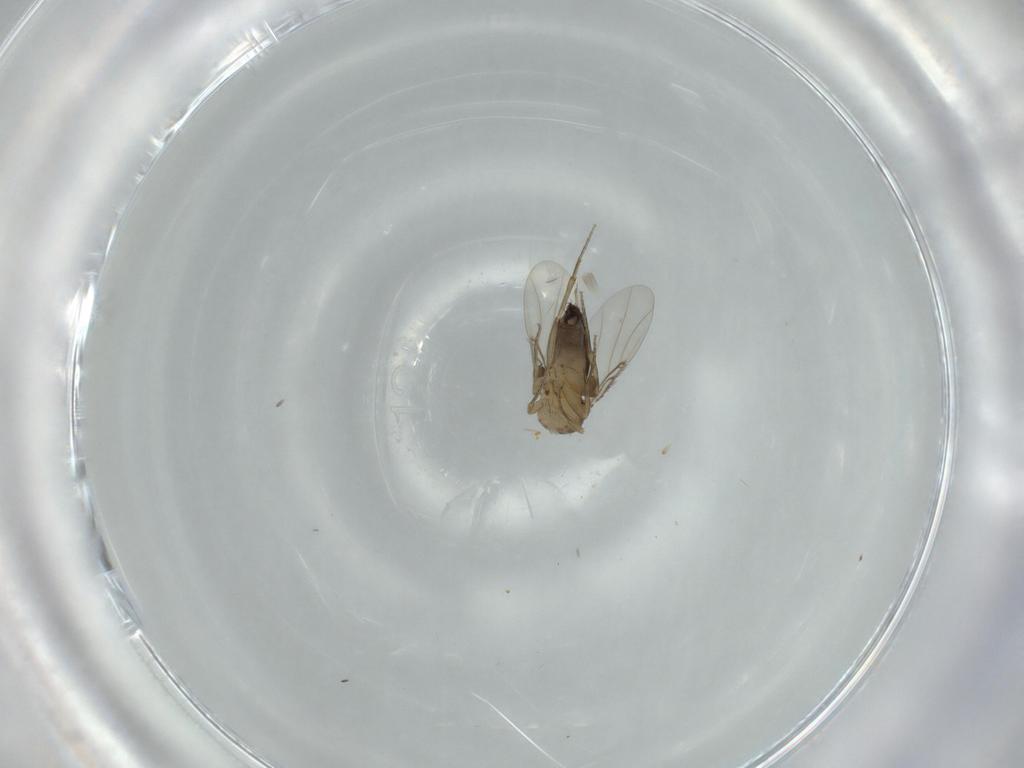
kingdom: Animalia
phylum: Arthropoda
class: Insecta
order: Diptera
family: Phoridae
